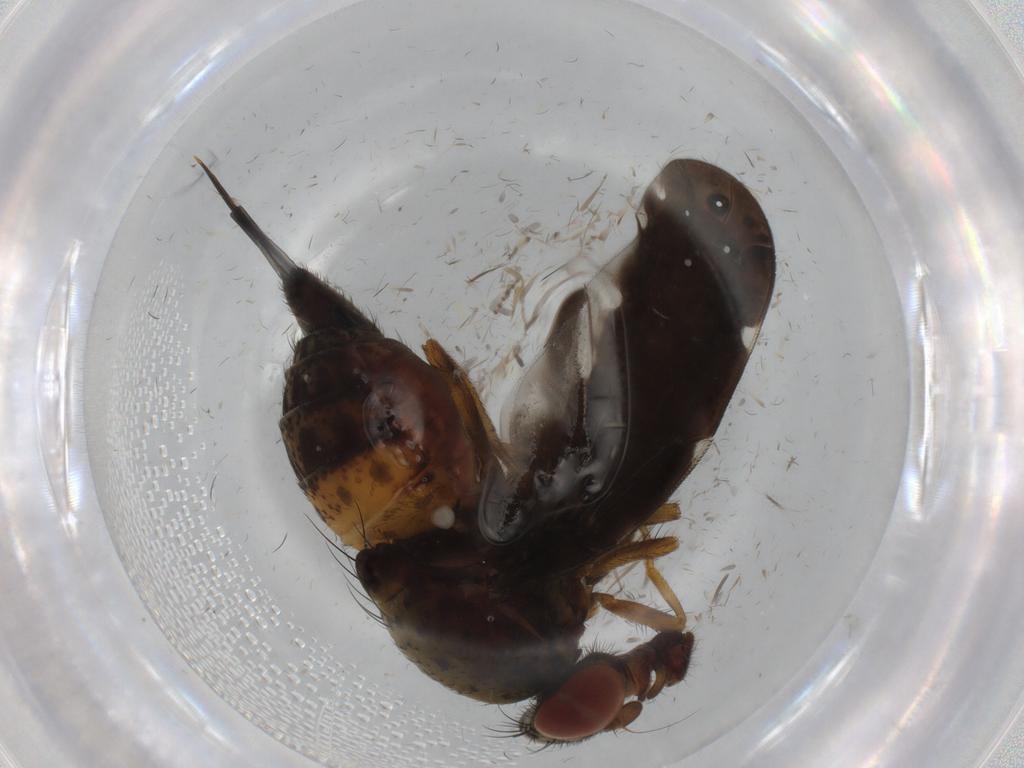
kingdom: Animalia
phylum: Arthropoda
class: Insecta
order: Diptera
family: Ulidiidae
